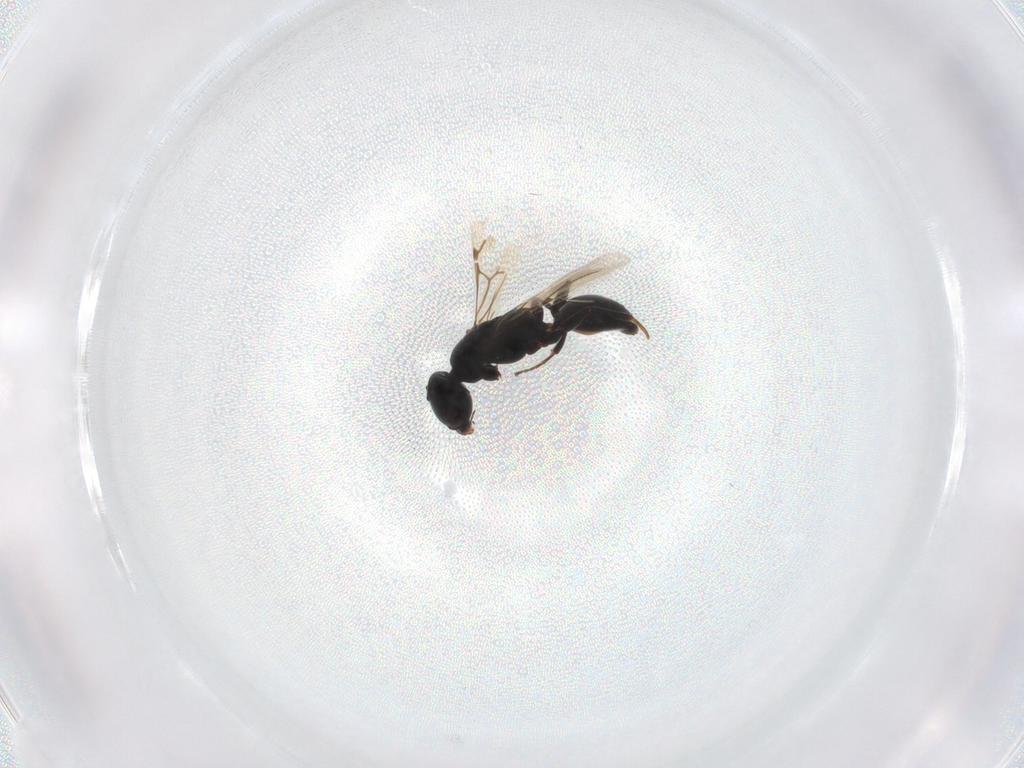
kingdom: Animalia
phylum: Arthropoda
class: Insecta
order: Hymenoptera
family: Bethylidae
